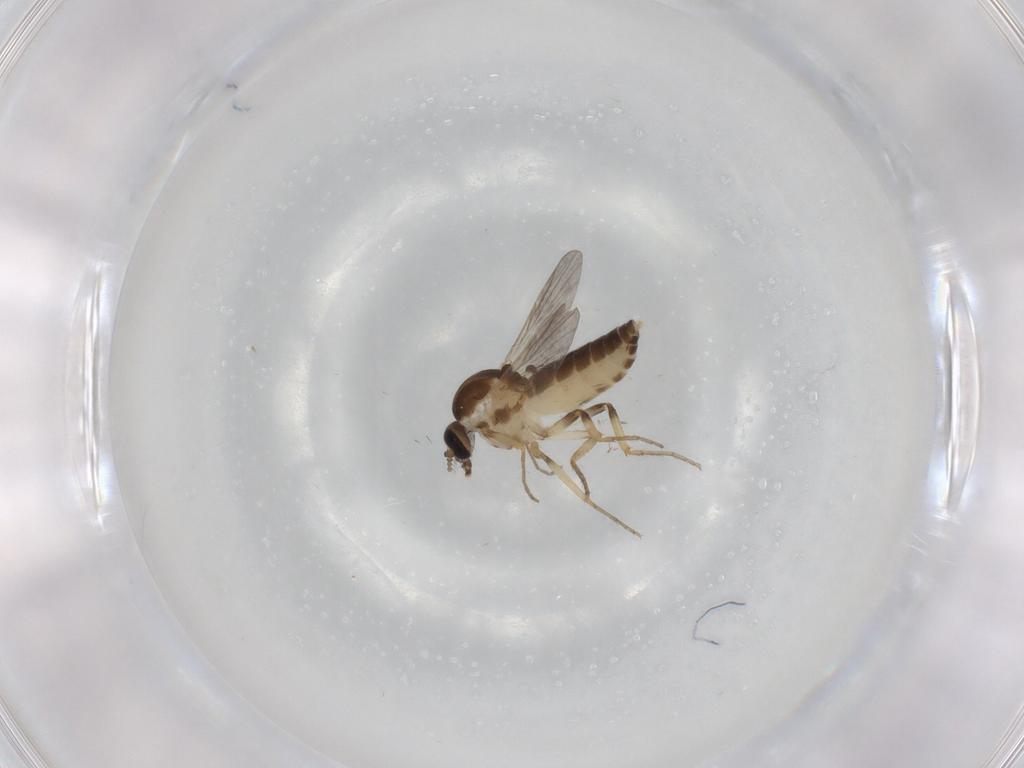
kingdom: Animalia
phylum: Arthropoda
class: Insecta
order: Diptera
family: Ceratopogonidae
